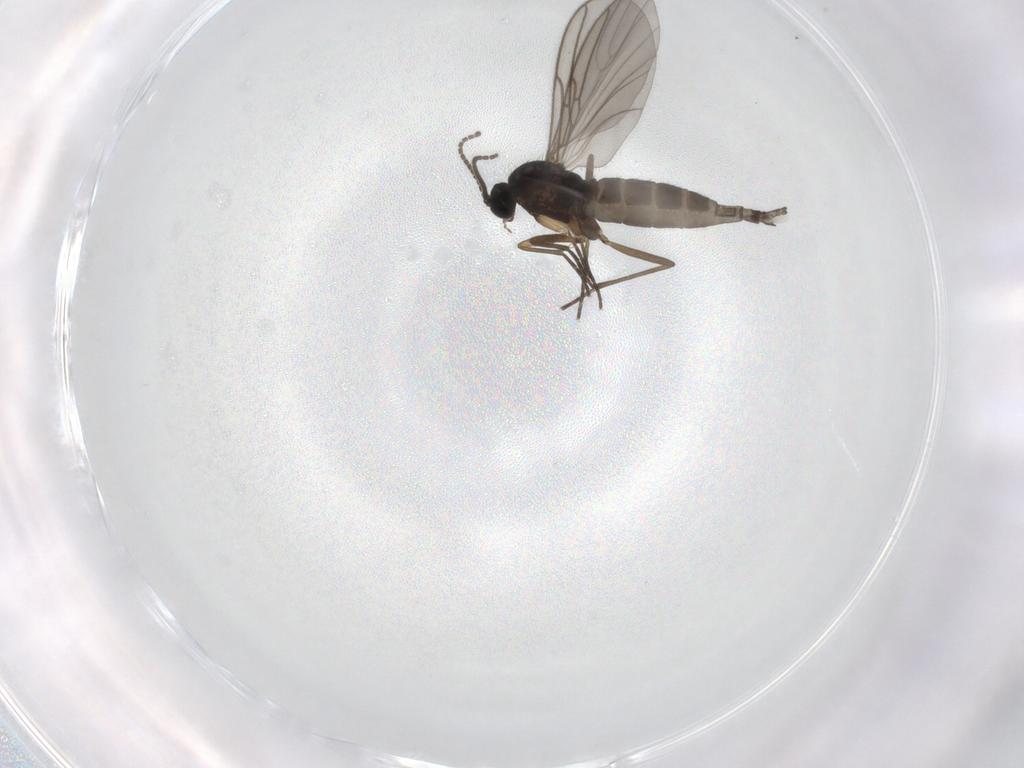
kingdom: Animalia
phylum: Arthropoda
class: Insecta
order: Diptera
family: Sciaridae
